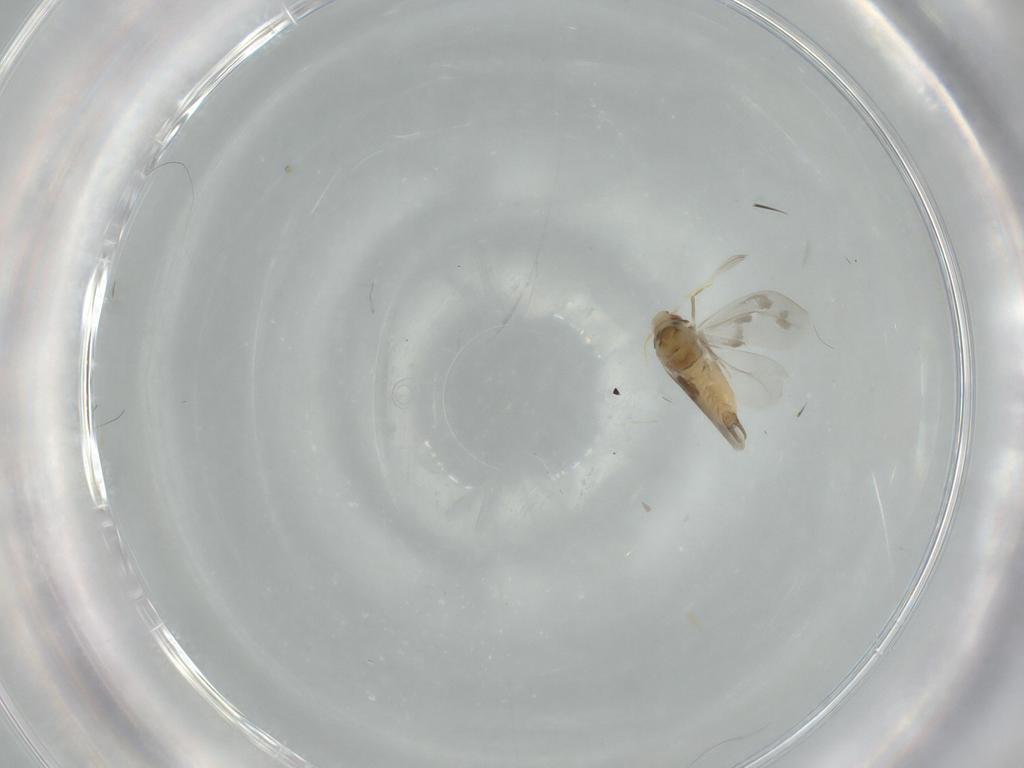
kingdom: Animalia
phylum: Arthropoda
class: Insecta
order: Hemiptera
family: Aleyrodidae
